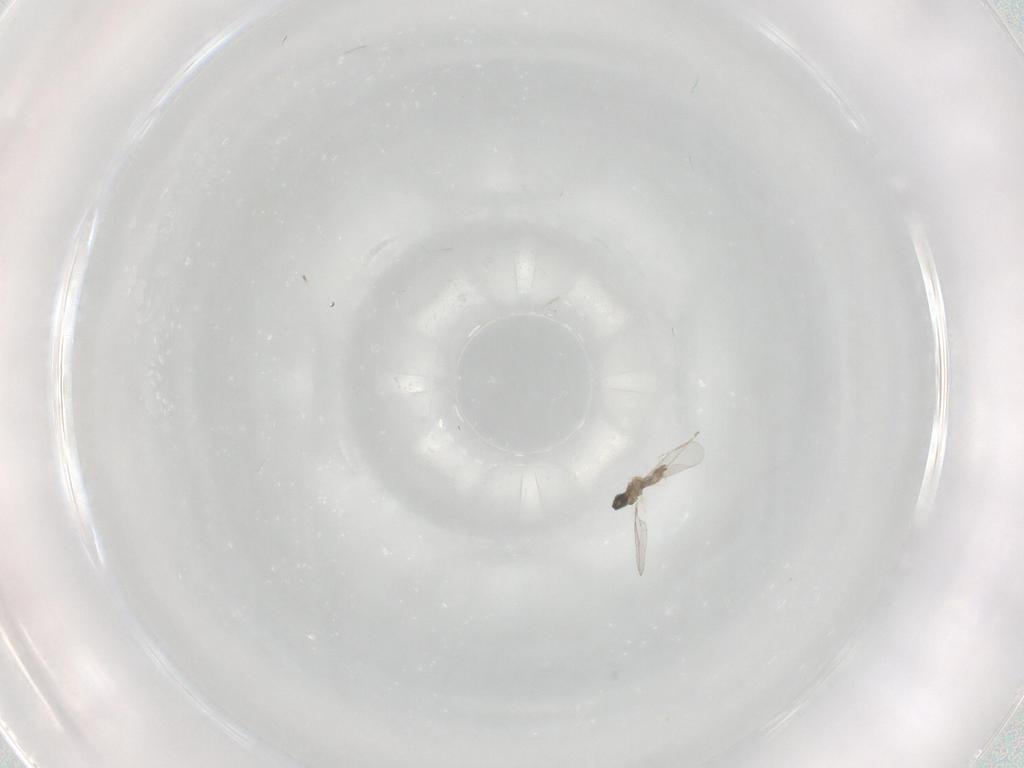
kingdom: Animalia
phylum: Arthropoda
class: Insecta
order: Diptera
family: Cecidomyiidae
